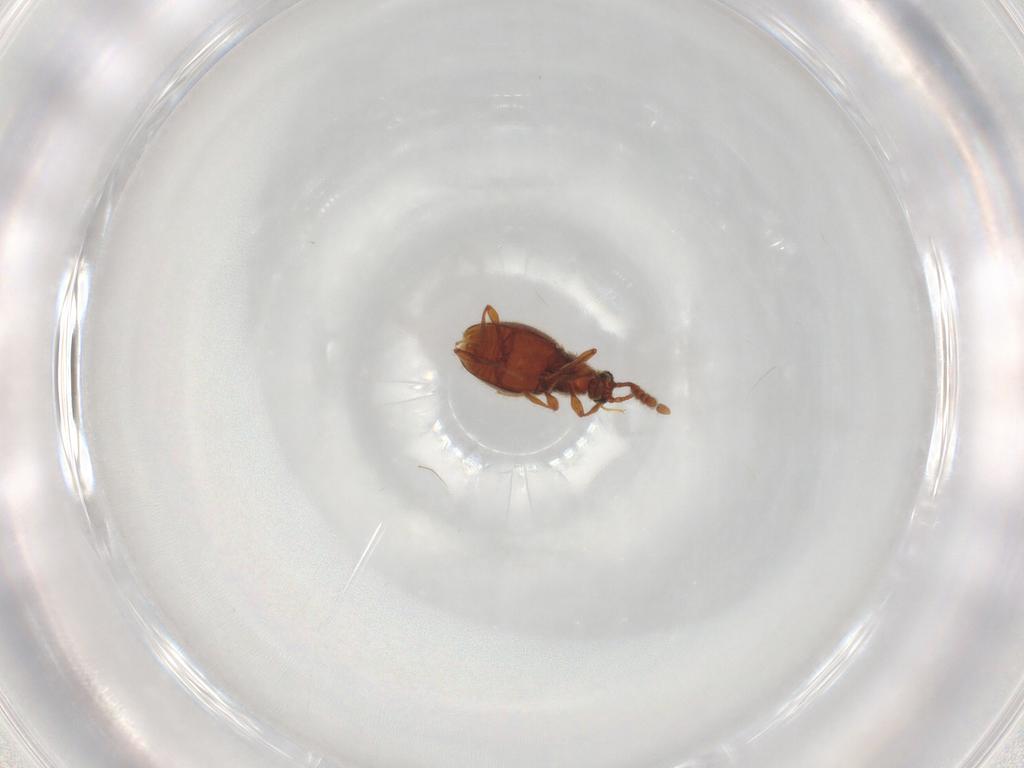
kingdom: Animalia
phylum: Arthropoda
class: Insecta
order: Coleoptera
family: Staphylinidae
